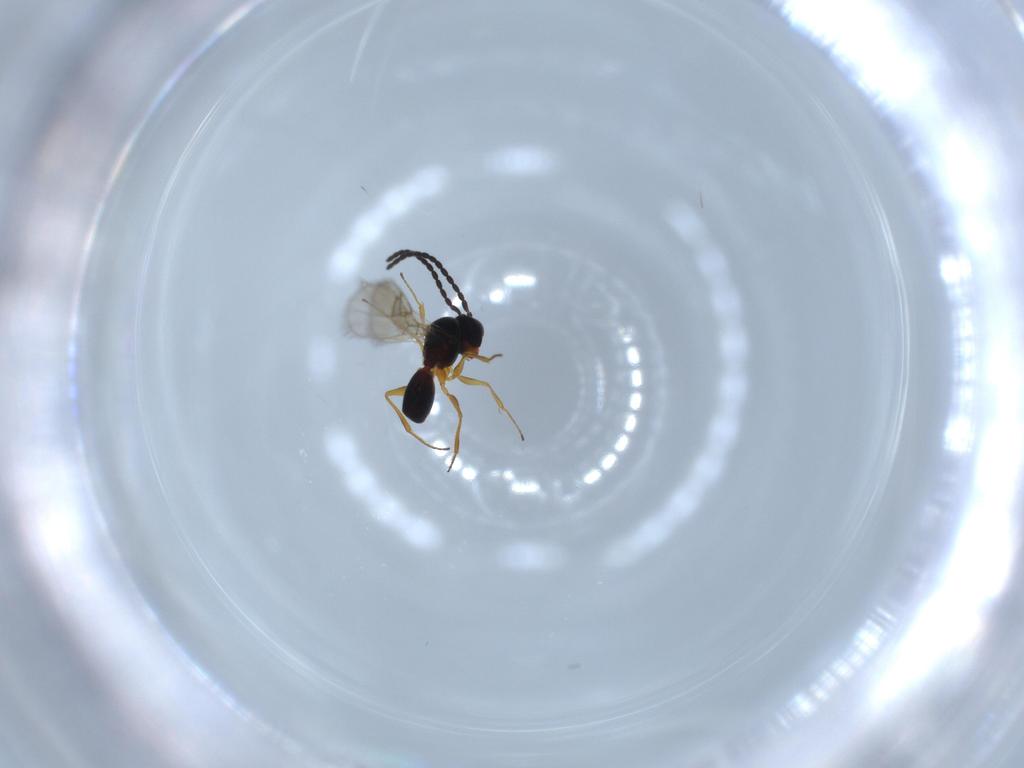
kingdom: Animalia
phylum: Arthropoda
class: Insecta
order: Hymenoptera
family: Figitidae
